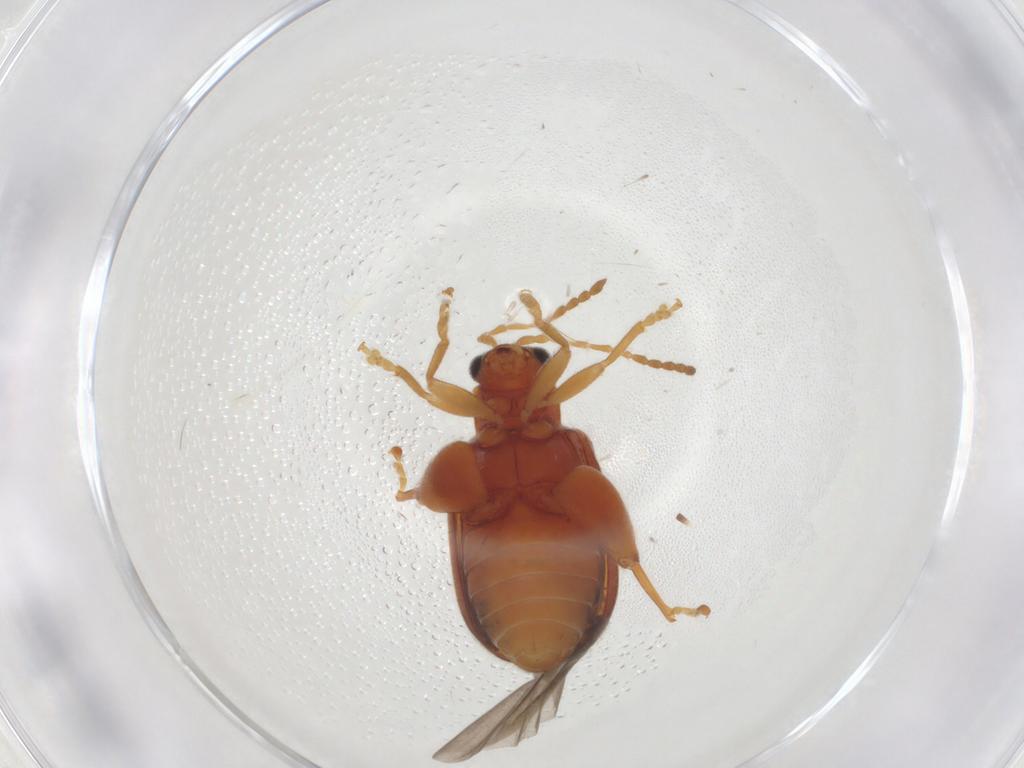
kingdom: Animalia
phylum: Arthropoda
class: Insecta
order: Coleoptera
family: Chrysomelidae
